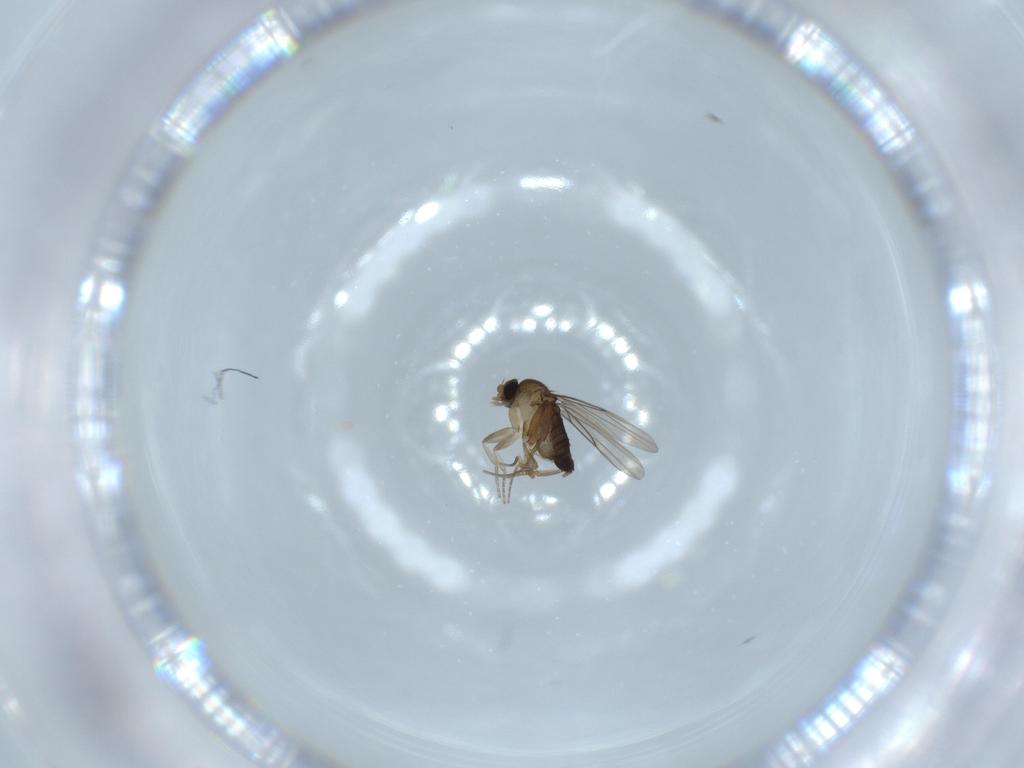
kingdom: Animalia
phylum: Arthropoda
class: Insecta
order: Diptera
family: Phoridae
